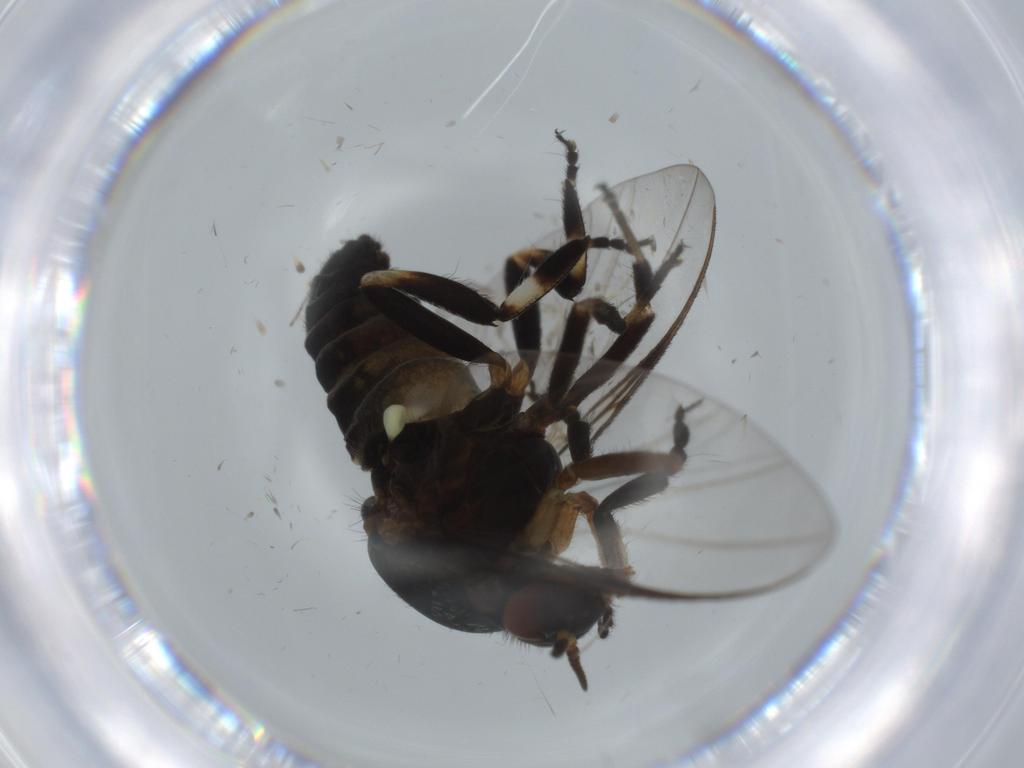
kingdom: Animalia
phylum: Arthropoda
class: Insecta
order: Diptera
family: Simuliidae
